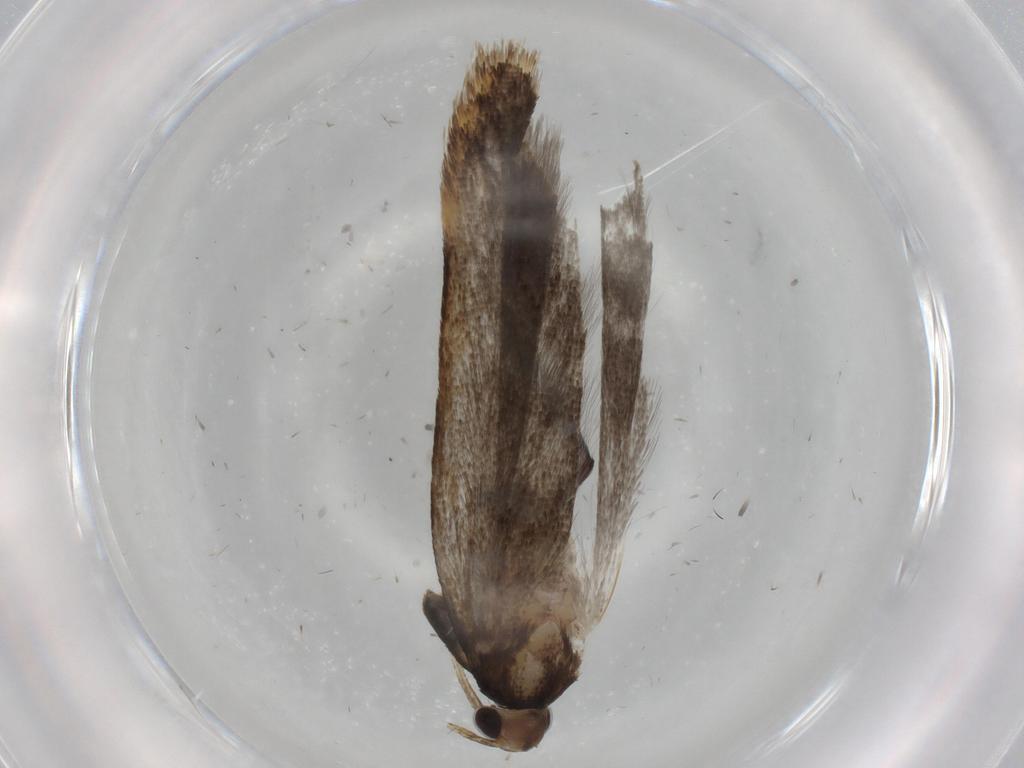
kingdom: Animalia
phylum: Arthropoda
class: Insecta
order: Lepidoptera
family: Gelechiidae
